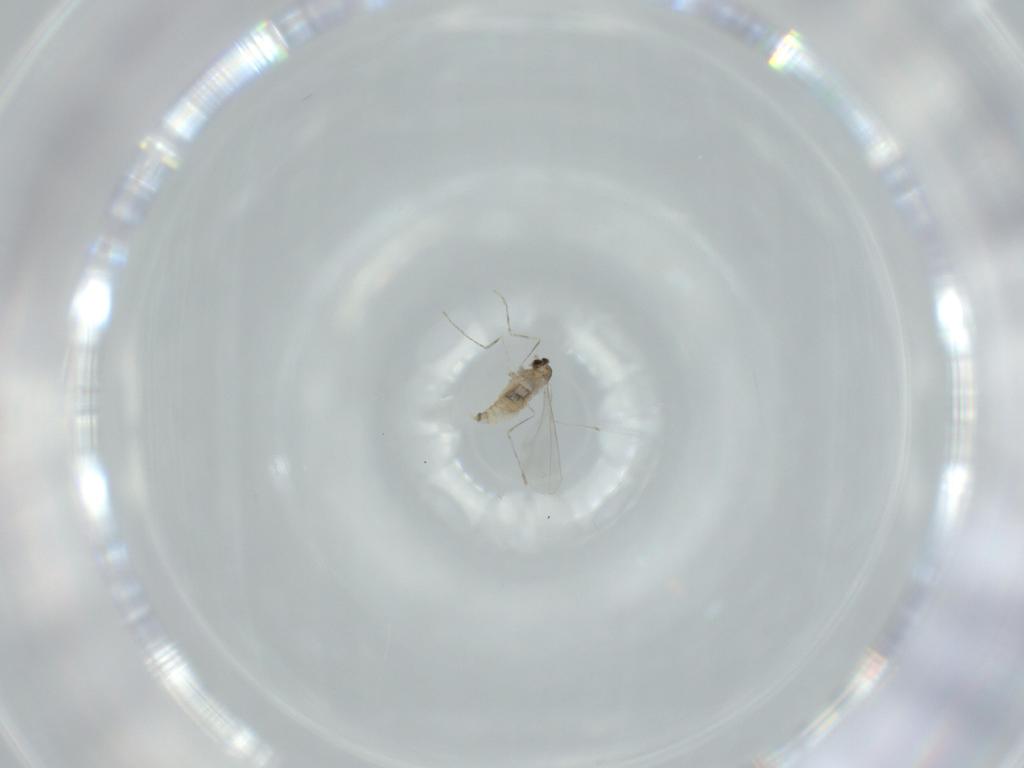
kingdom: Animalia
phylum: Arthropoda
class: Insecta
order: Diptera
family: Cecidomyiidae
